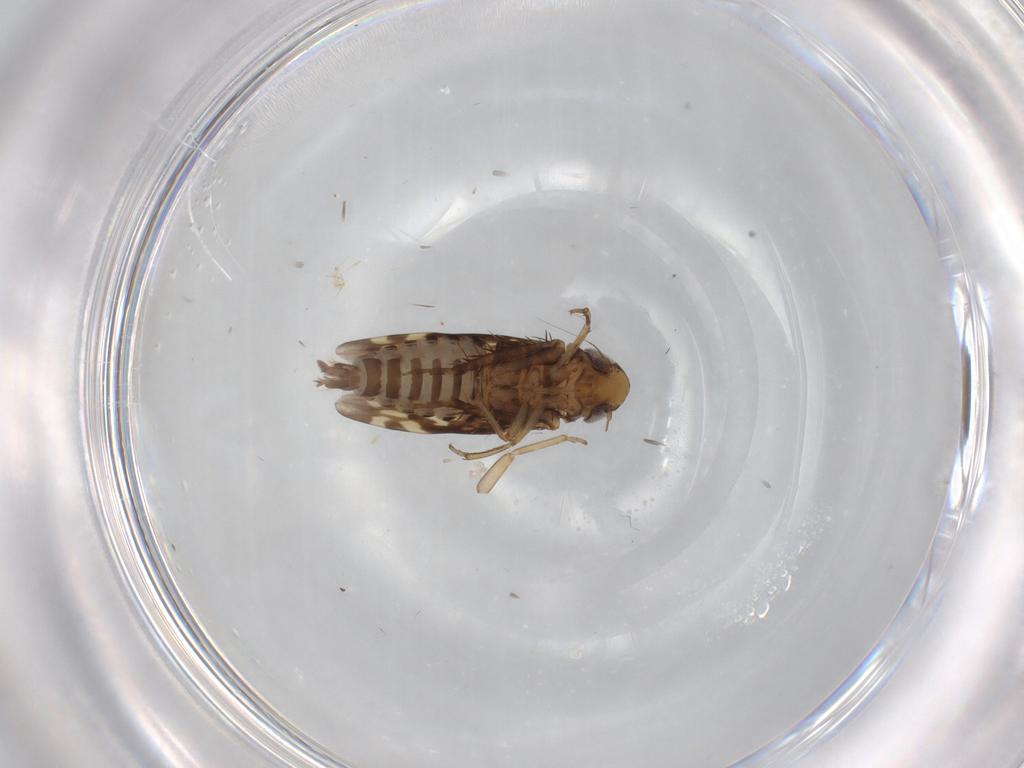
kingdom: Animalia
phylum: Arthropoda
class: Insecta
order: Hemiptera
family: Cicadellidae
